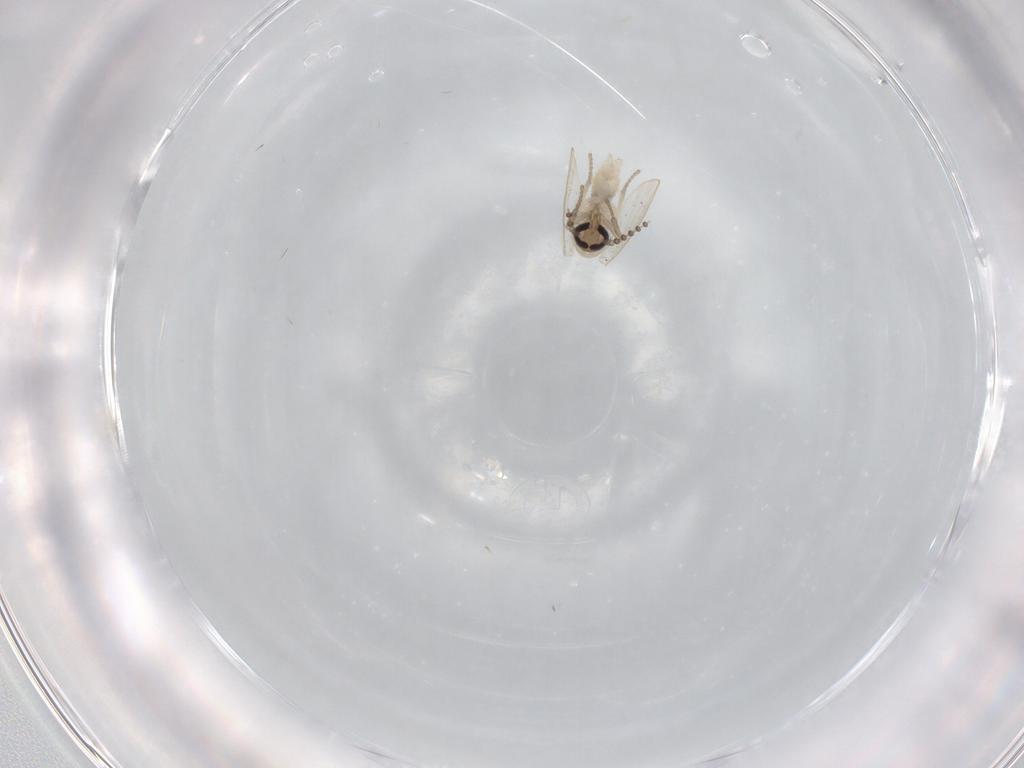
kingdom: Animalia
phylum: Arthropoda
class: Insecta
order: Diptera
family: Psychodidae
